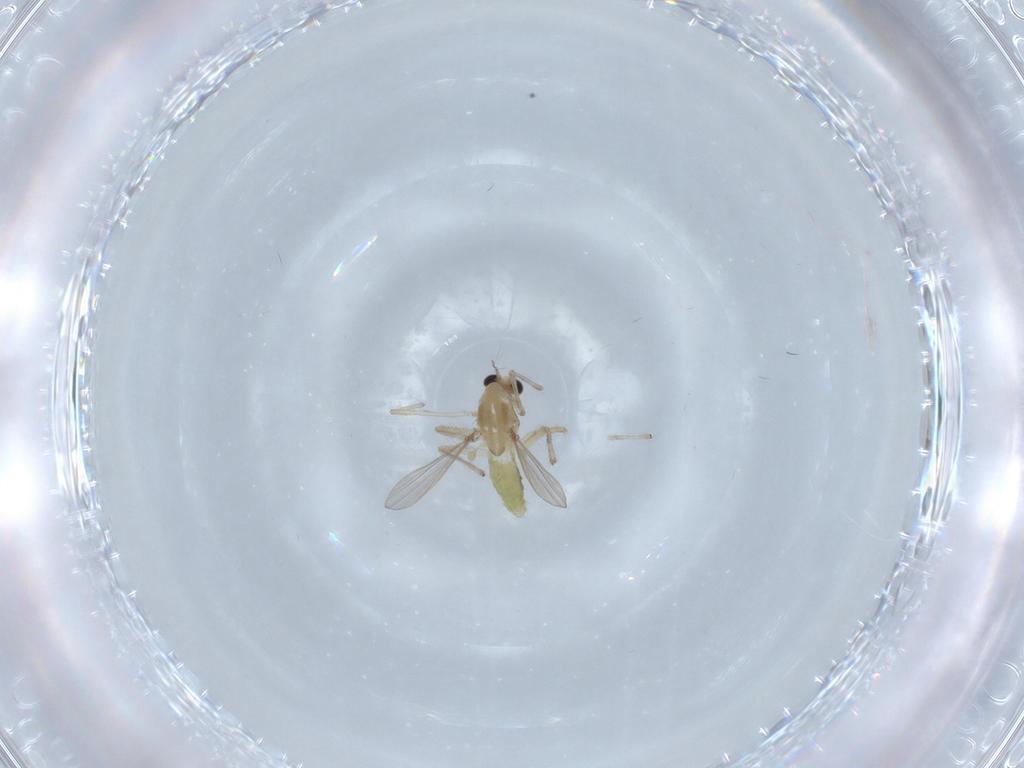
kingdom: Animalia
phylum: Arthropoda
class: Insecta
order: Diptera
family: Chironomidae
